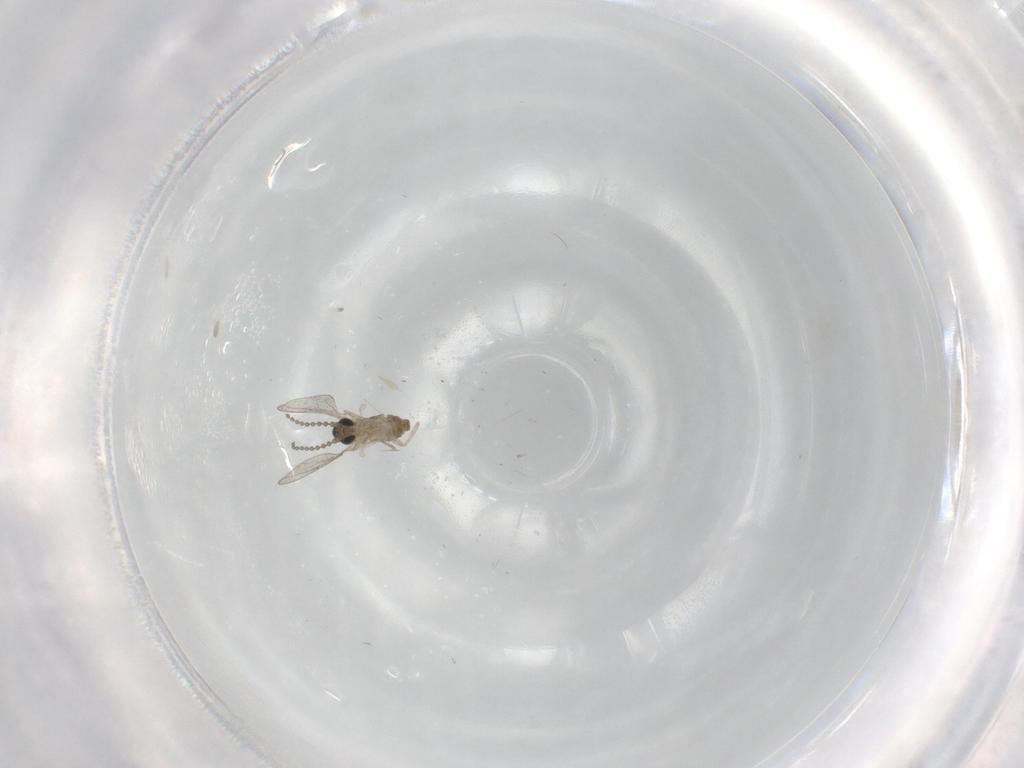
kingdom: Animalia
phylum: Arthropoda
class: Insecta
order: Diptera
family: Cecidomyiidae
